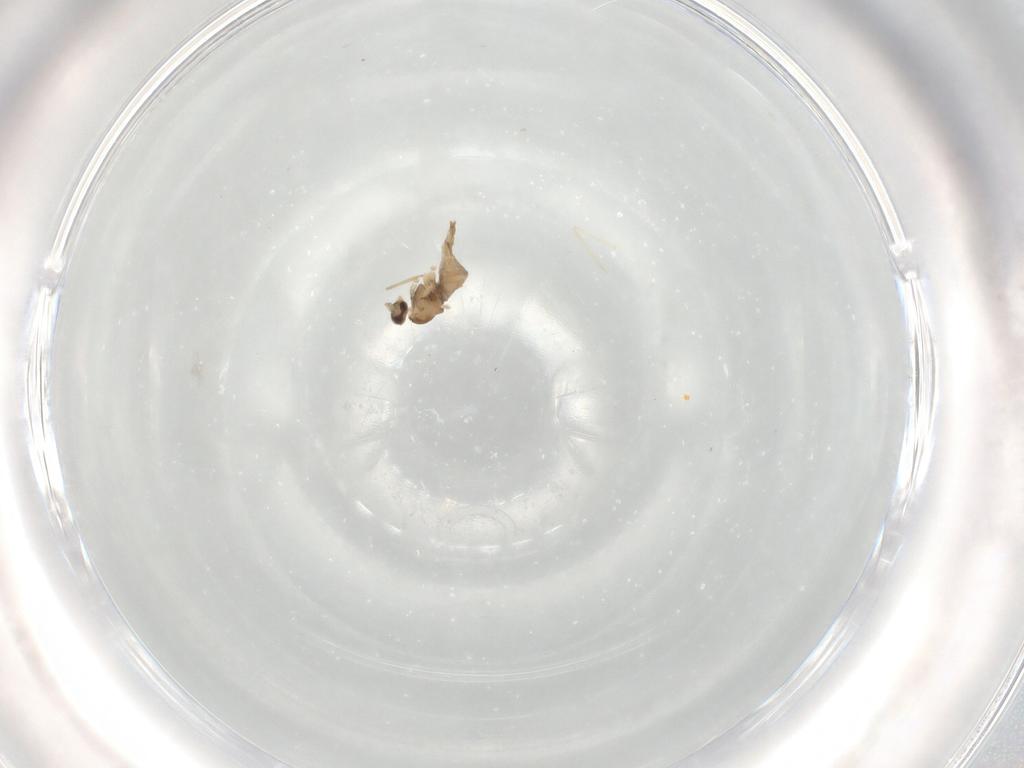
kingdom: Animalia
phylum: Arthropoda
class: Insecta
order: Diptera
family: Cecidomyiidae
